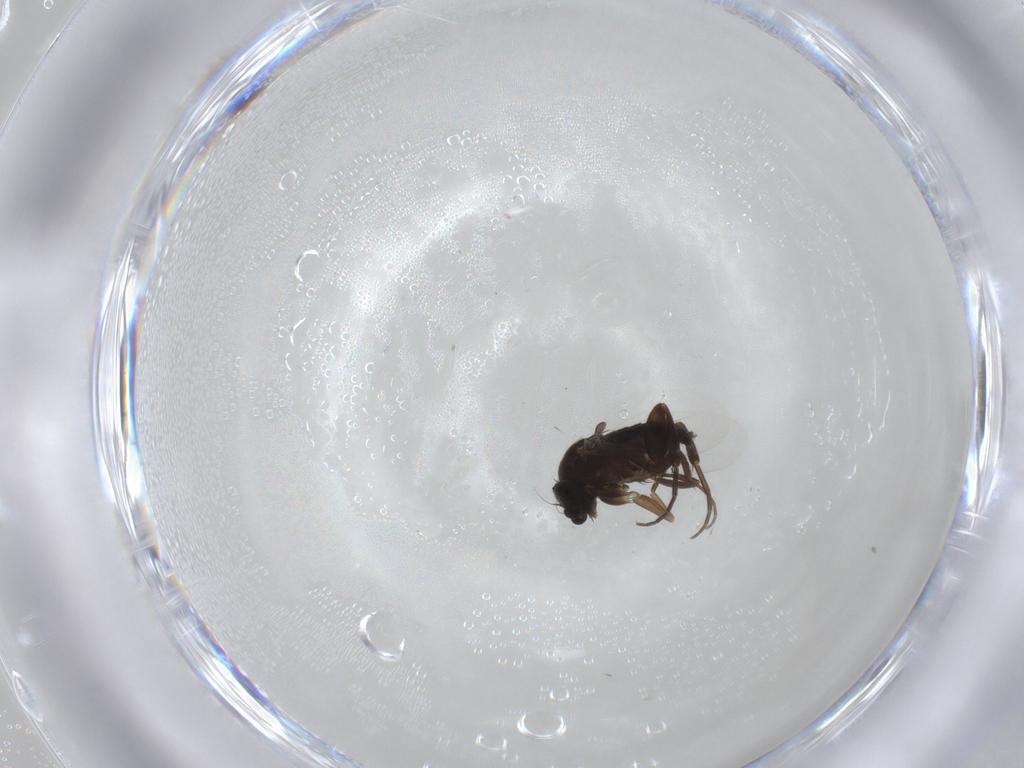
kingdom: Animalia
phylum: Arthropoda
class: Insecta
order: Diptera
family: Phoridae
